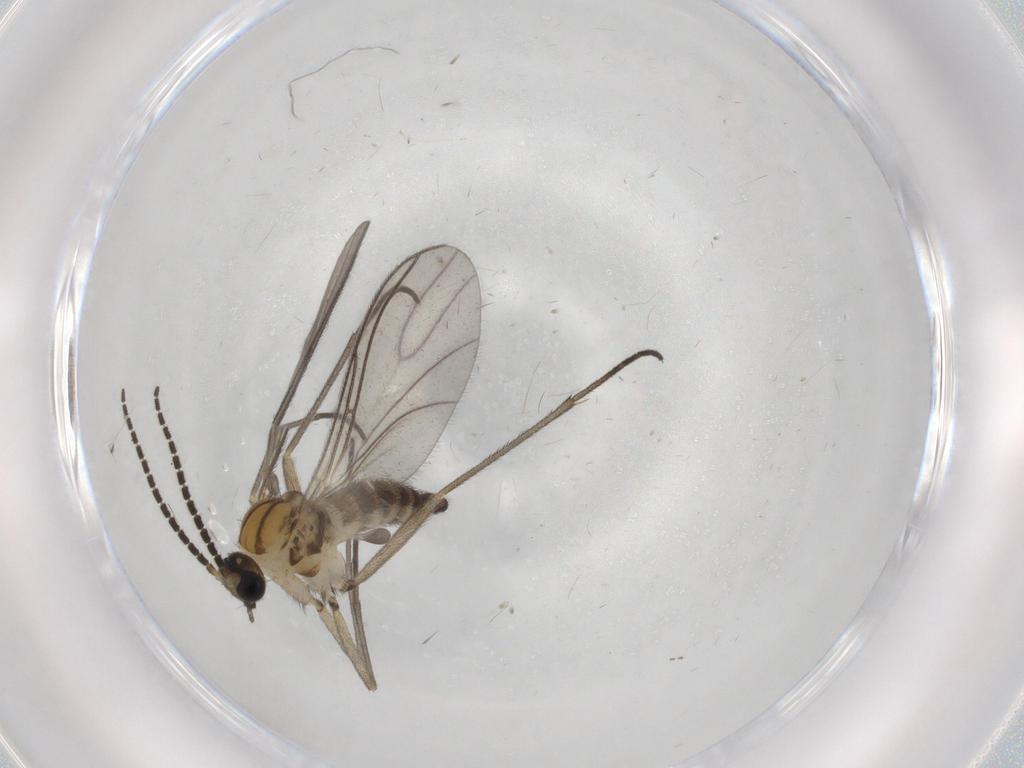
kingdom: Animalia
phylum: Arthropoda
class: Insecta
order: Diptera
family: Sciaridae
